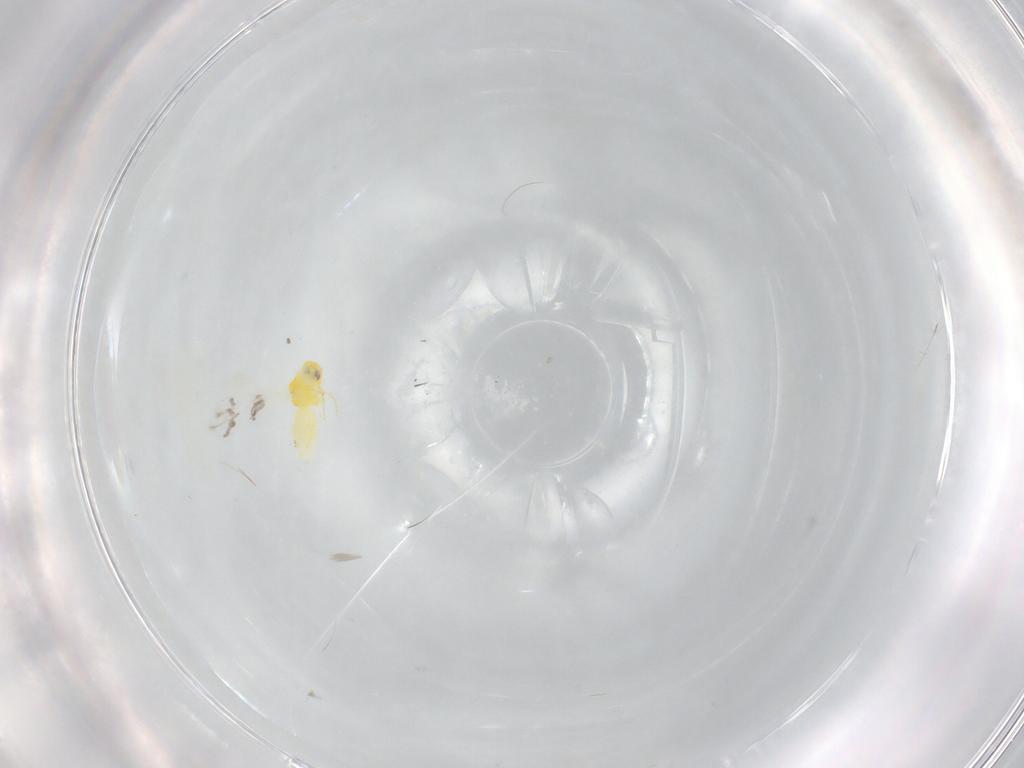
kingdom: Animalia
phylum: Arthropoda
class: Insecta
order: Hemiptera
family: Aleyrodidae
